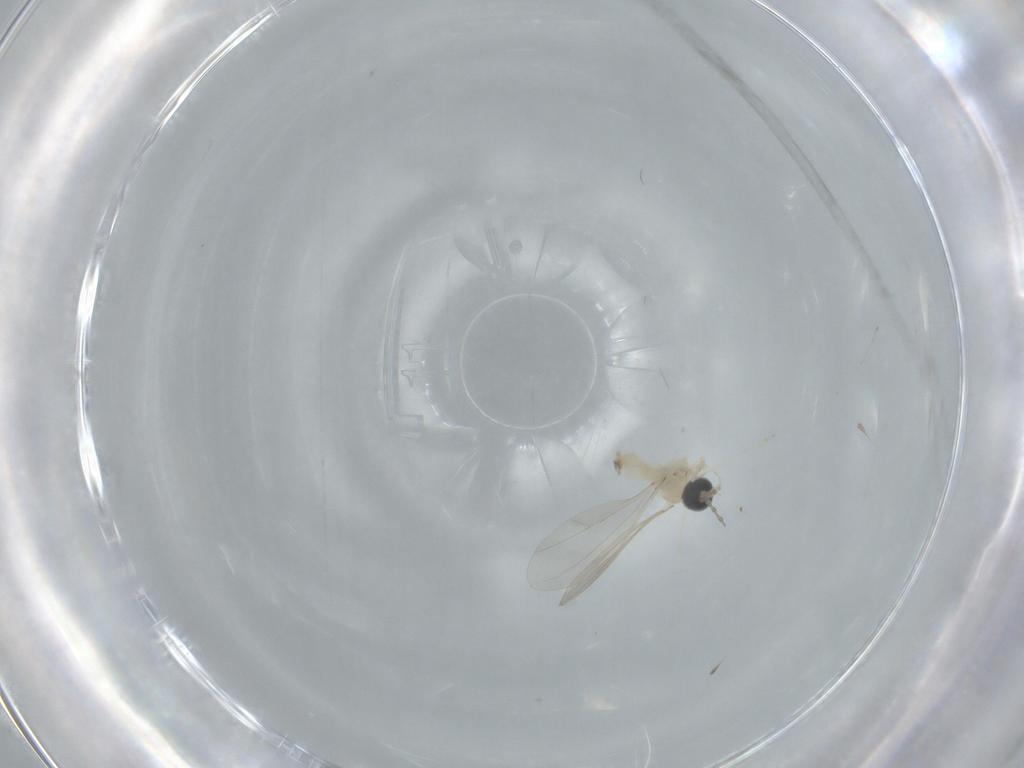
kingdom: Animalia
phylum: Arthropoda
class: Insecta
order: Diptera
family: Cecidomyiidae
